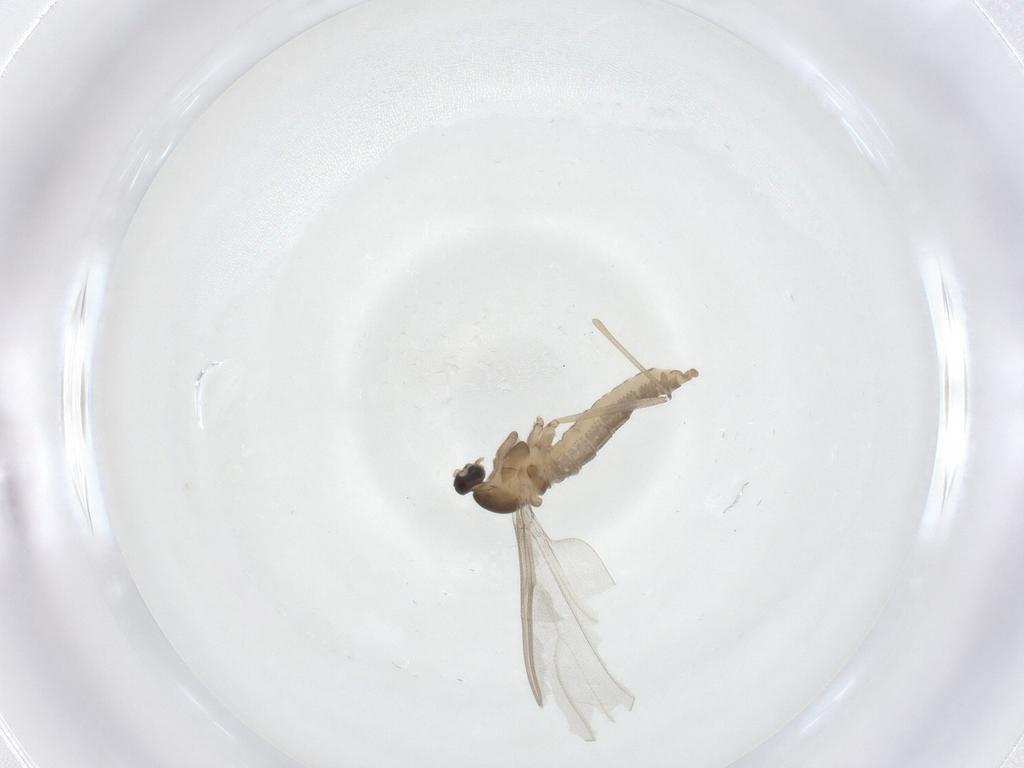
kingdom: Animalia
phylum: Arthropoda
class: Insecta
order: Diptera
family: Cecidomyiidae
